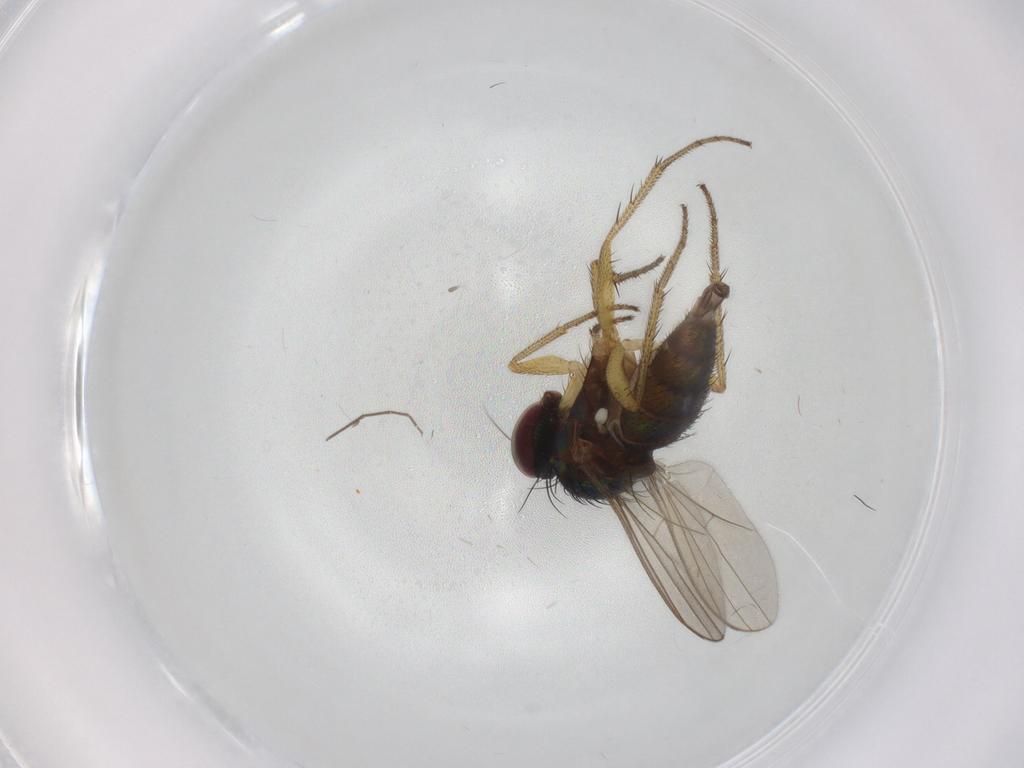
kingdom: Animalia
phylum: Arthropoda
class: Insecta
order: Diptera
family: Dolichopodidae
